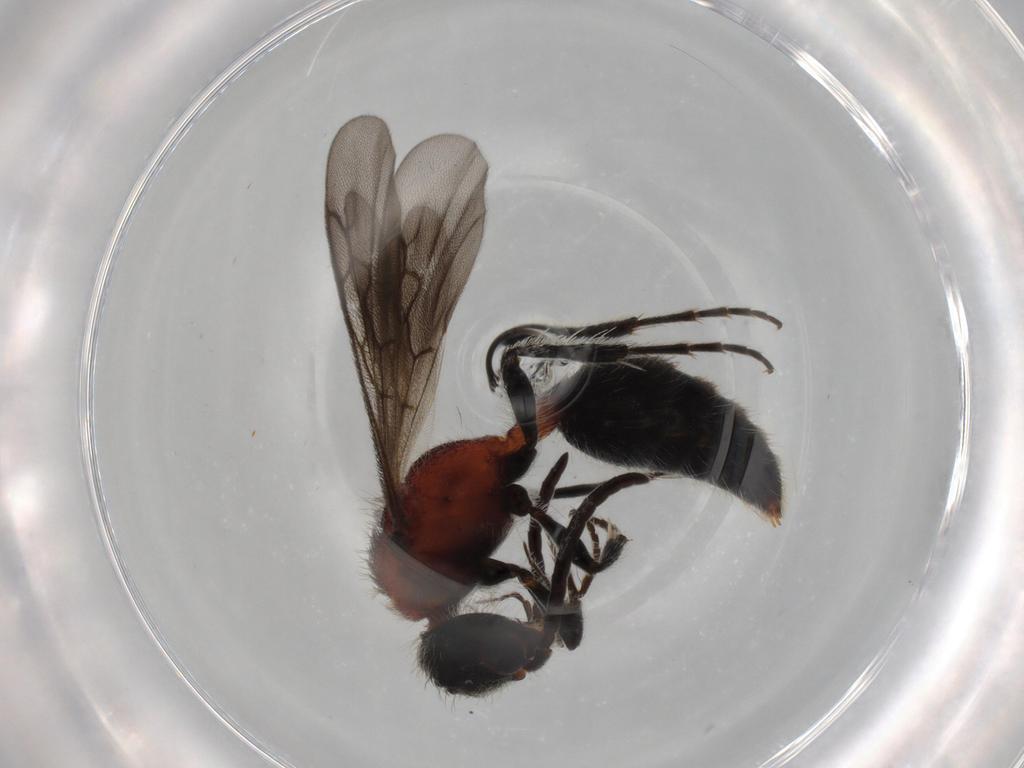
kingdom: Animalia
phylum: Arthropoda
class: Insecta
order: Hymenoptera
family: Mutillidae
